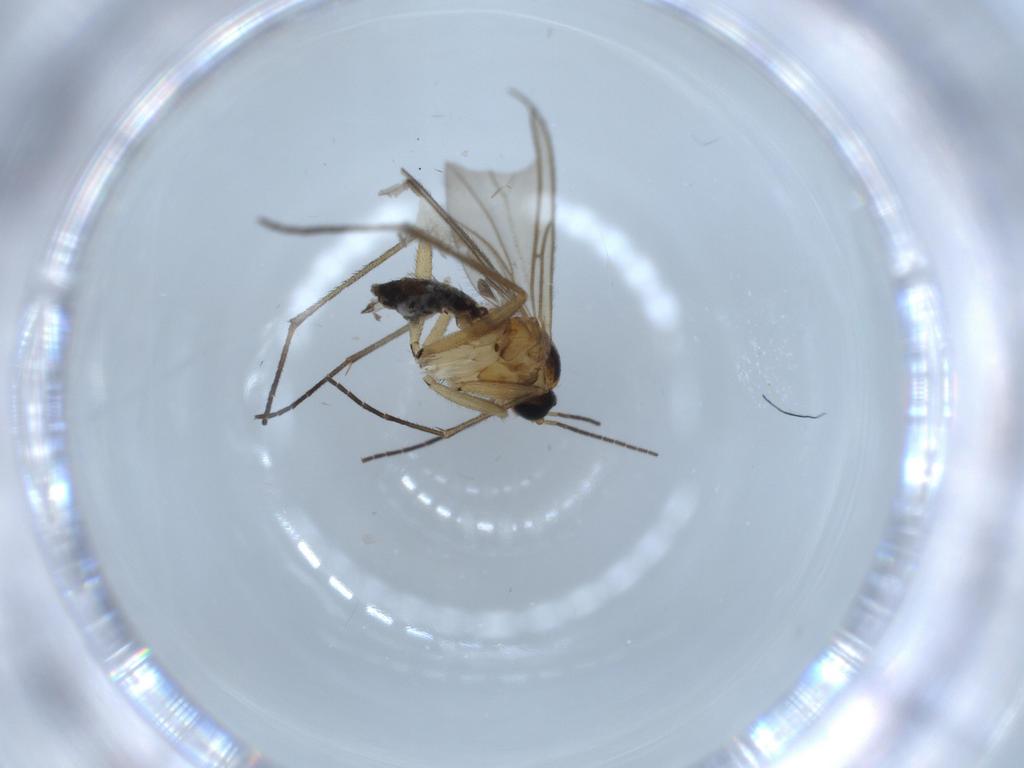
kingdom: Animalia
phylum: Arthropoda
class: Insecta
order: Diptera
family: Sciaridae
